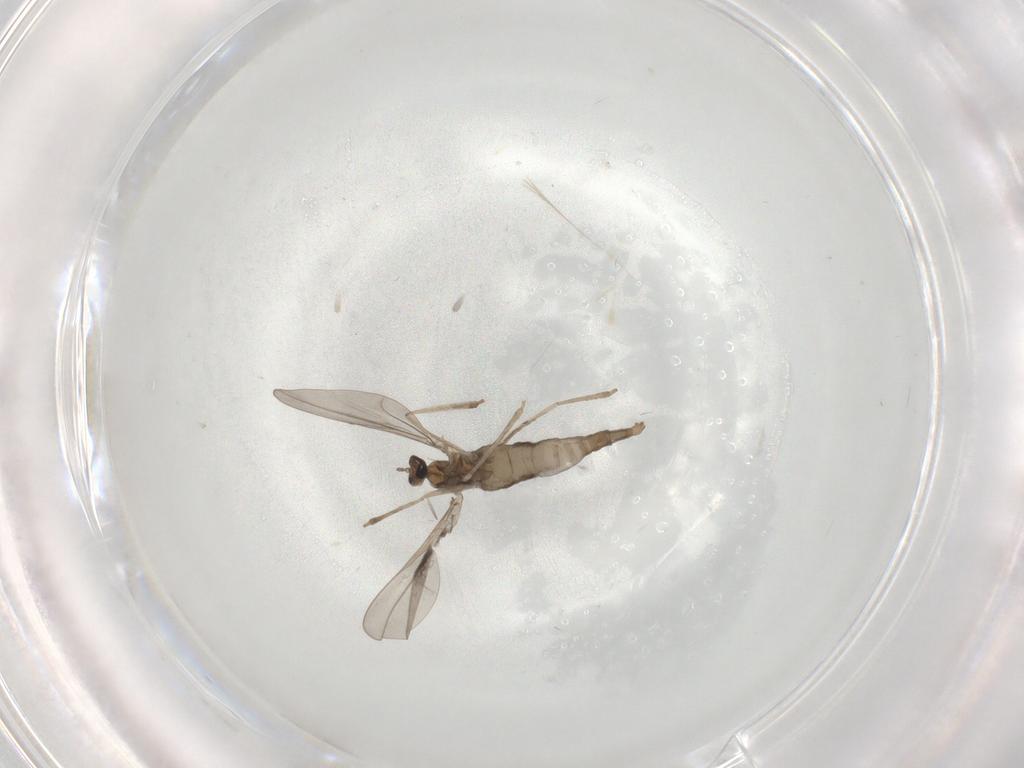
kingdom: Animalia
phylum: Arthropoda
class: Insecta
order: Diptera
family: Cecidomyiidae
